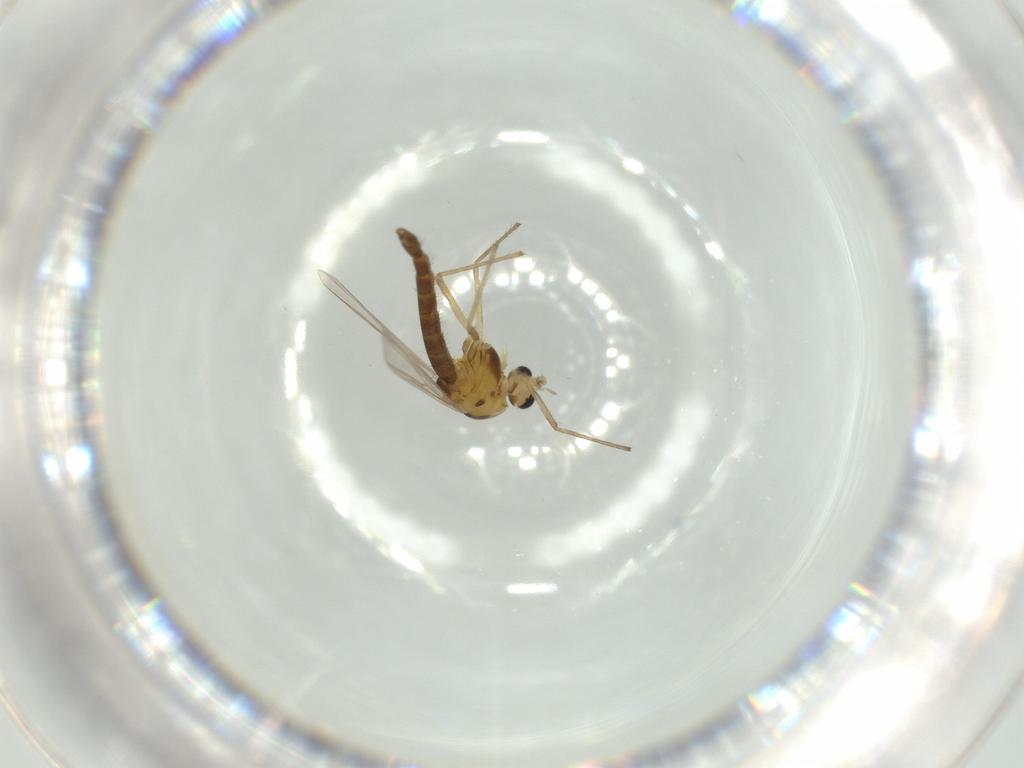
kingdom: Animalia
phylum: Arthropoda
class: Insecta
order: Diptera
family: Chironomidae
